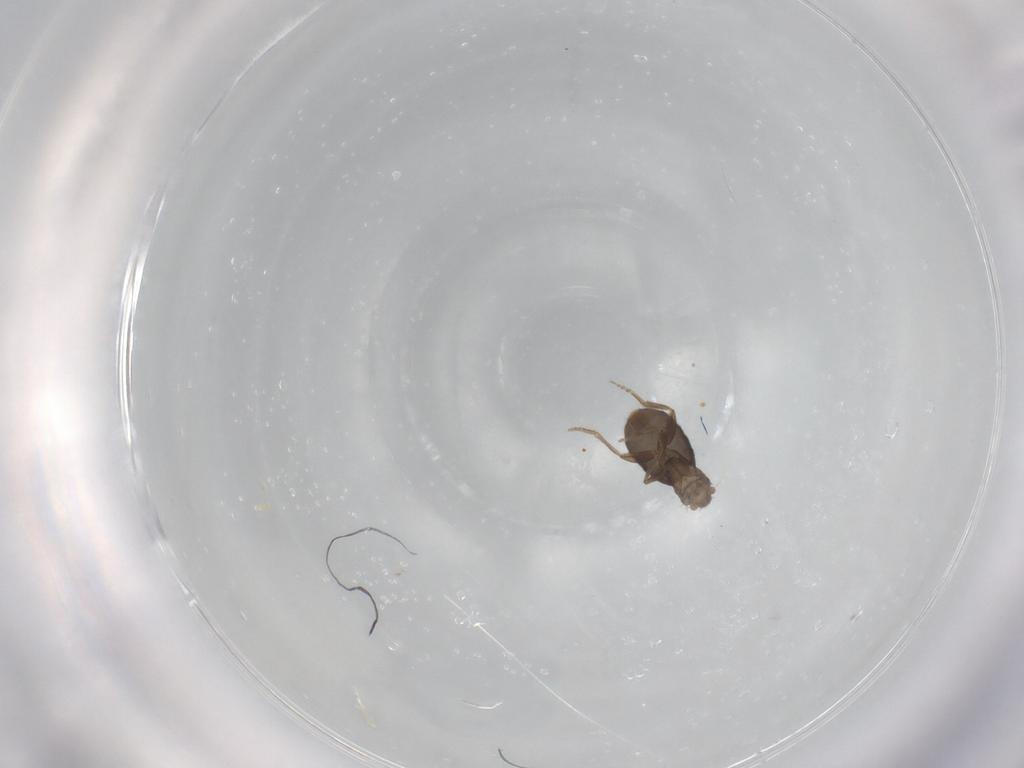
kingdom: Animalia
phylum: Arthropoda
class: Insecta
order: Diptera
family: Phoridae
